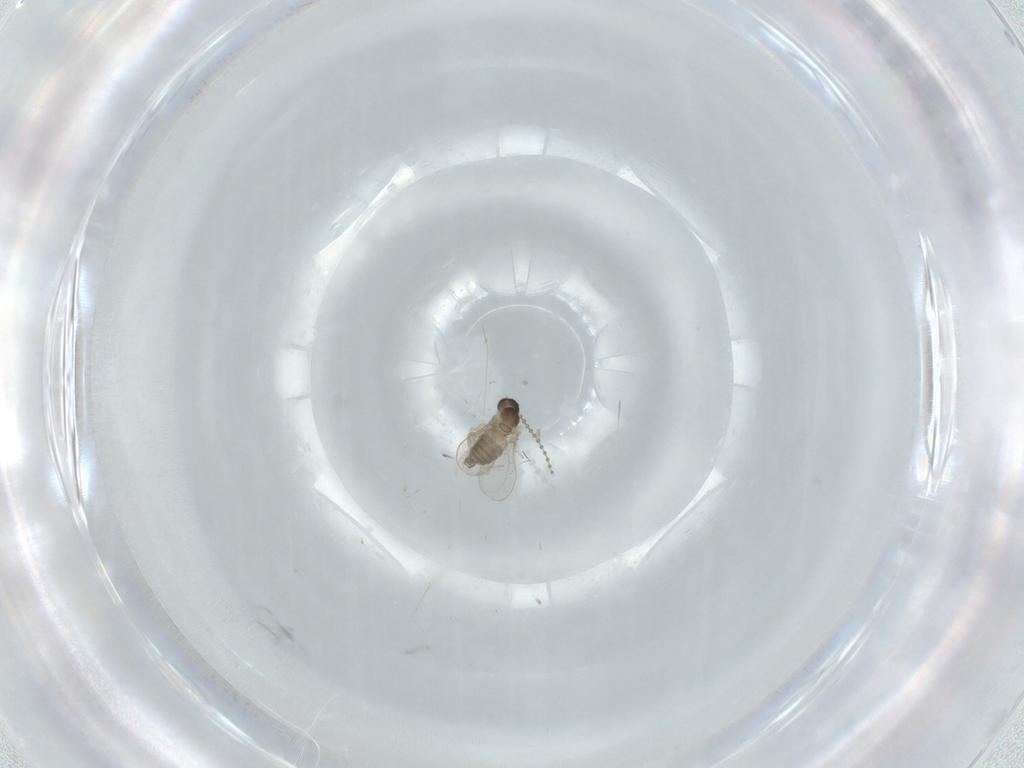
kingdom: Animalia
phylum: Arthropoda
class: Insecta
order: Diptera
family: Cecidomyiidae
